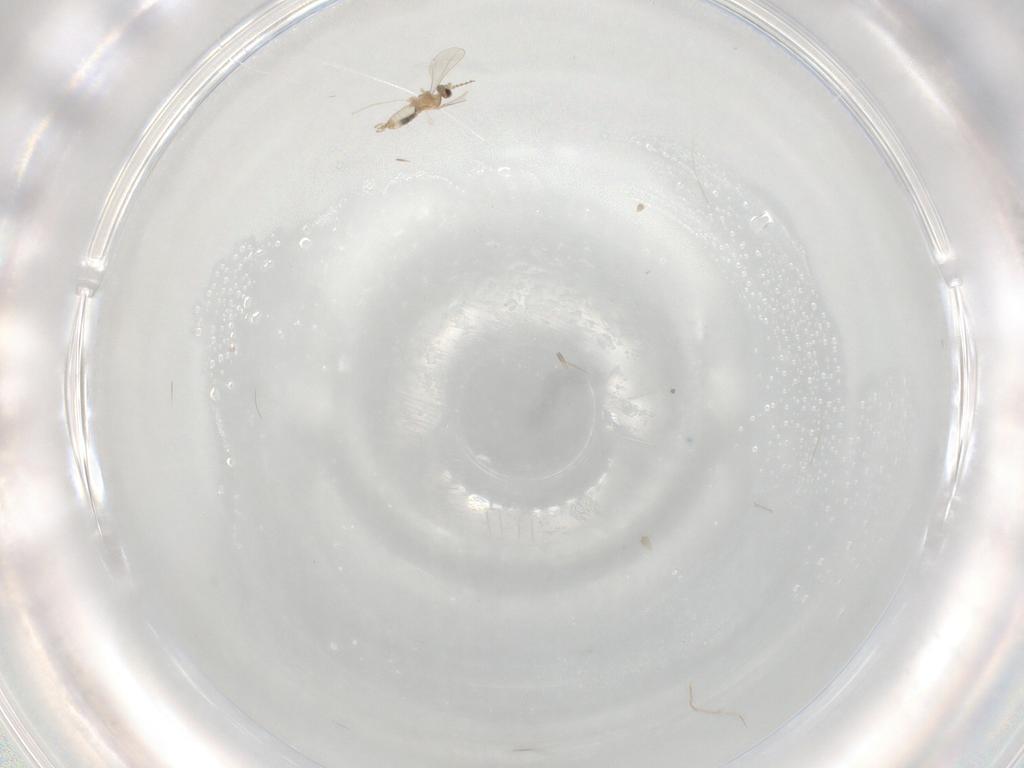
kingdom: Animalia
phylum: Arthropoda
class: Insecta
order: Diptera
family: Cecidomyiidae
